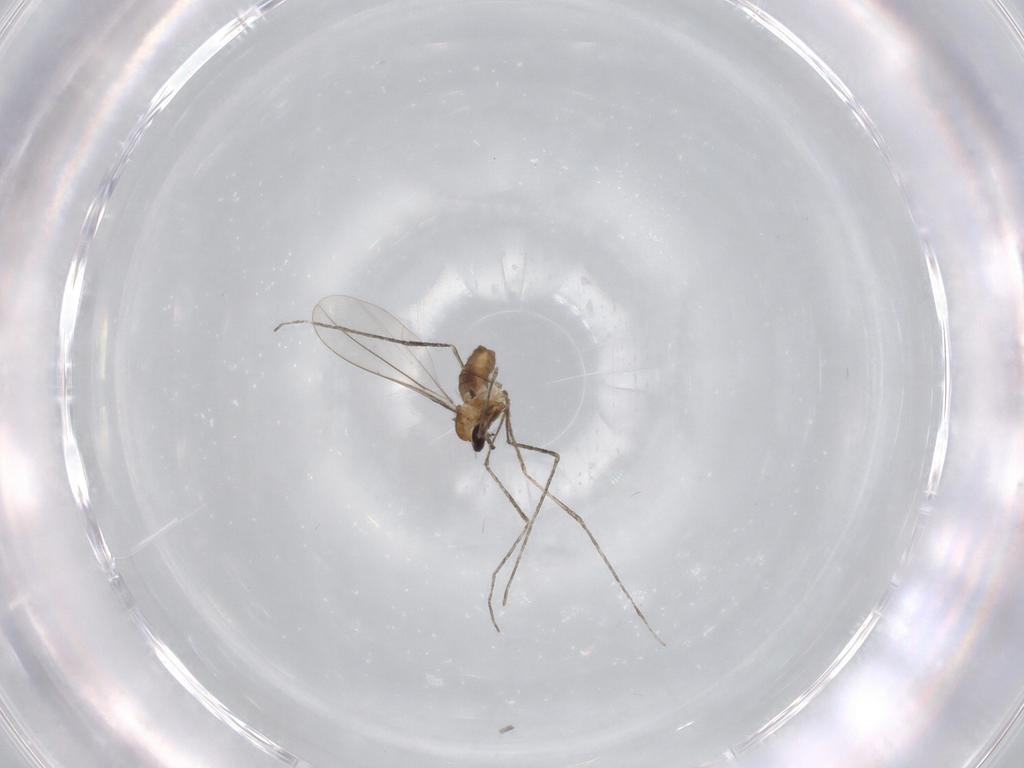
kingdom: Animalia
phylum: Arthropoda
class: Insecta
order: Diptera
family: Cecidomyiidae
